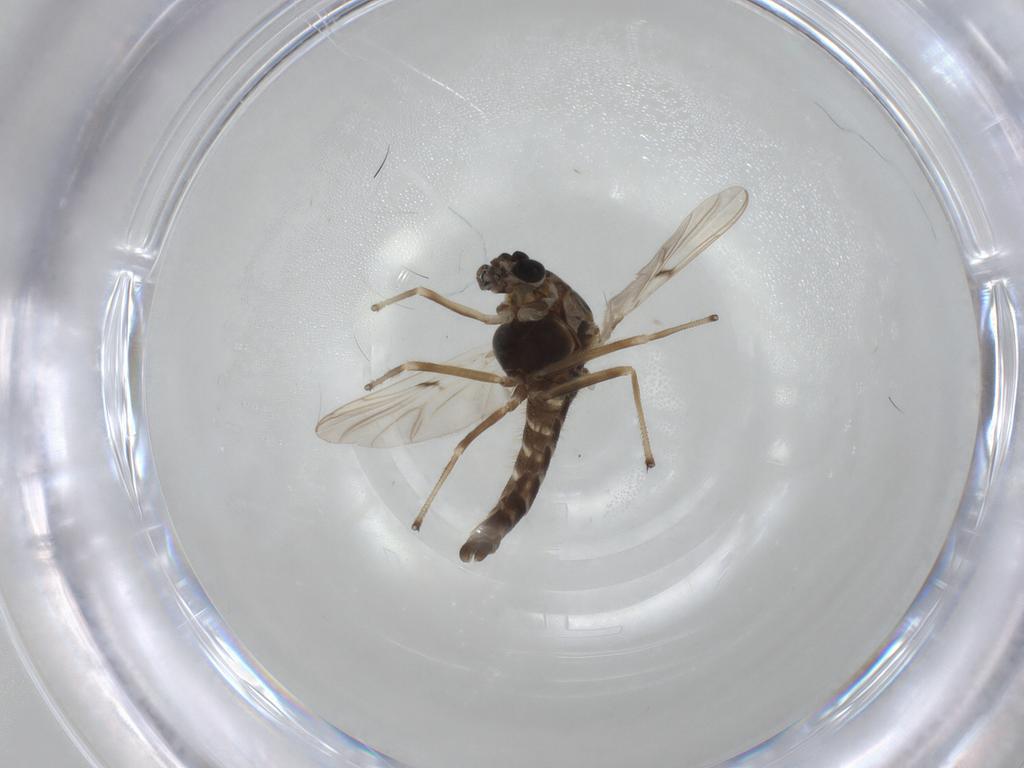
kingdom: Animalia
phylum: Arthropoda
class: Insecta
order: Diptera
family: Chironomidae
